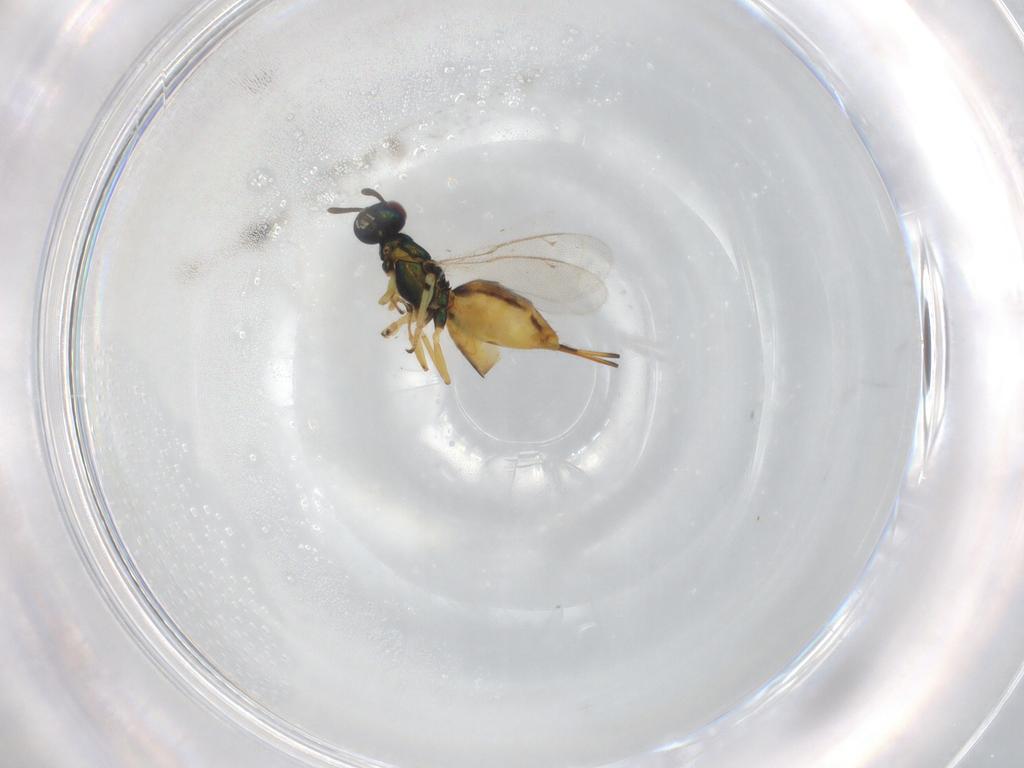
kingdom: Animalia
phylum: Arthropoda
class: Insecta
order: Hymenoptera
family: Eupelmidae
